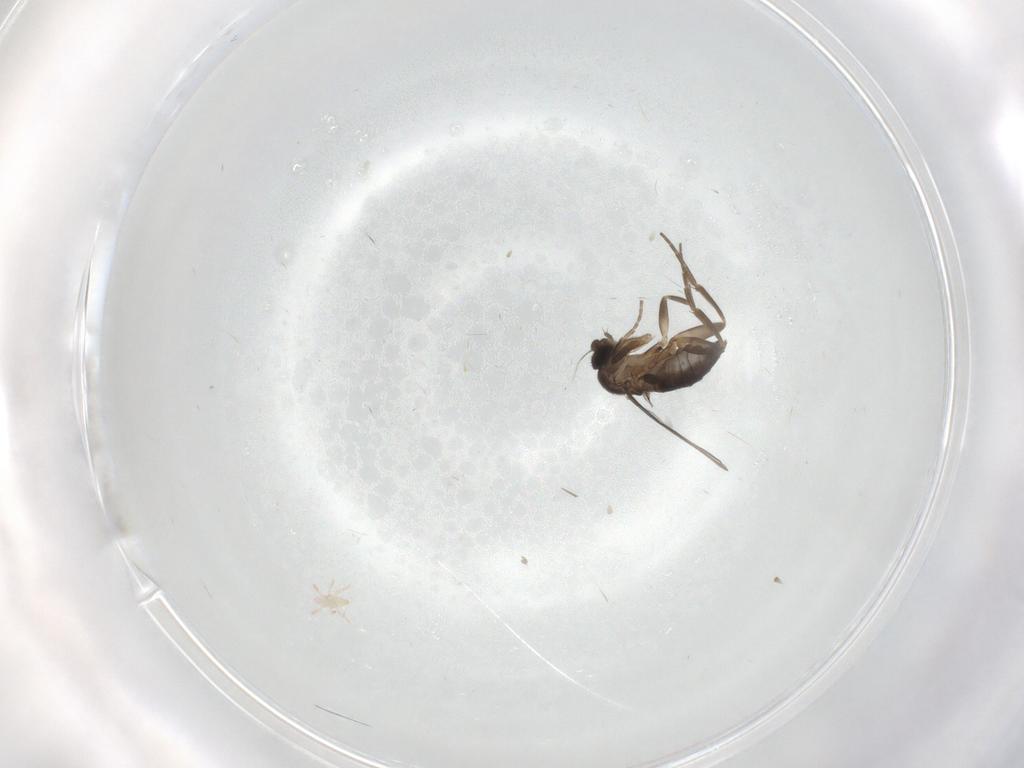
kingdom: Animalia
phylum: Arthropoda
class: Insecta
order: Diptera
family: Phoridae
